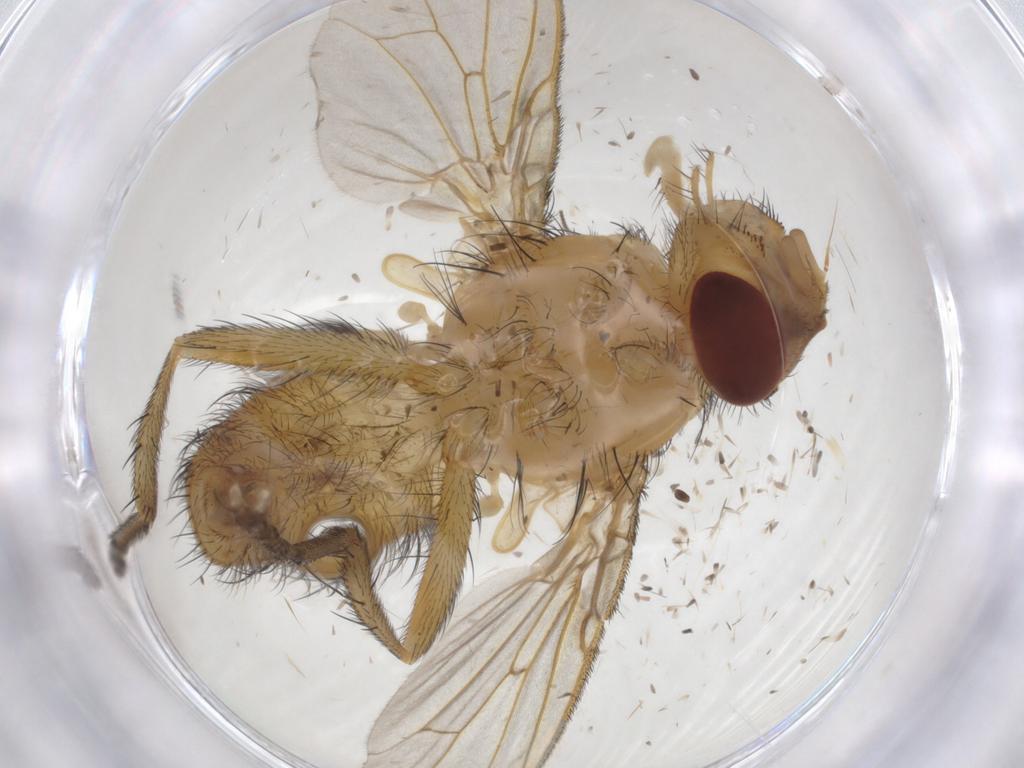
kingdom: Animalia
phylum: Arthropoda
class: Insecta
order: Diptera
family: Tachinidae
